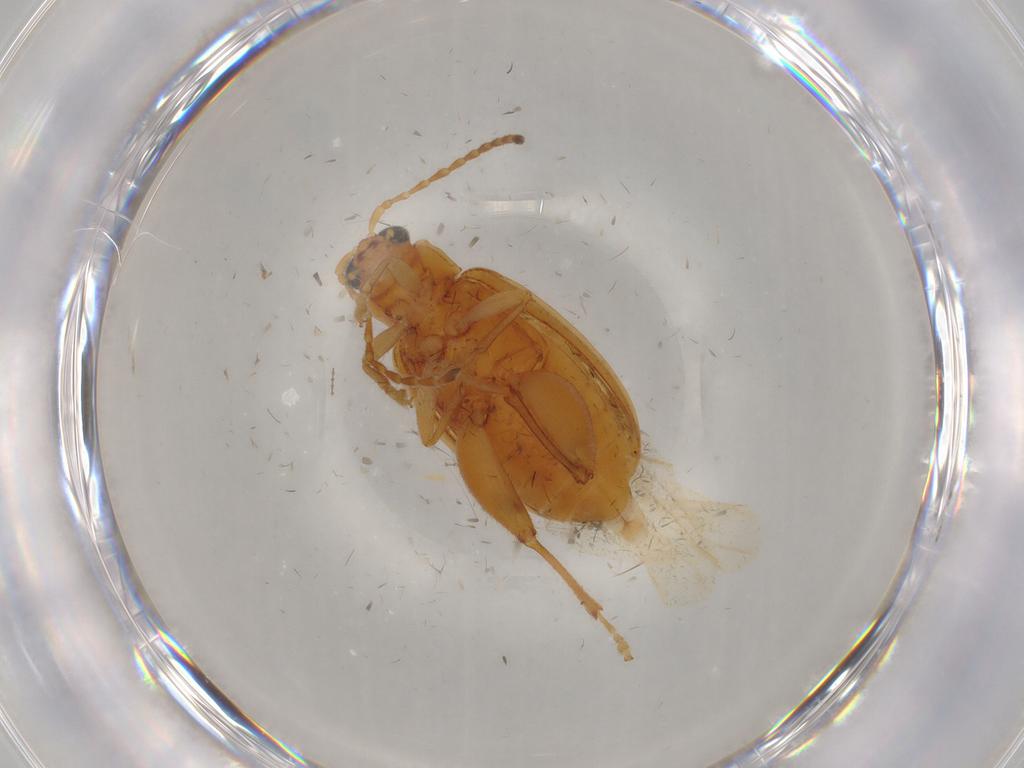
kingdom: Animalia
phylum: Arthropoda
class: Insecta
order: Coleoptera
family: Chrysomelidae
